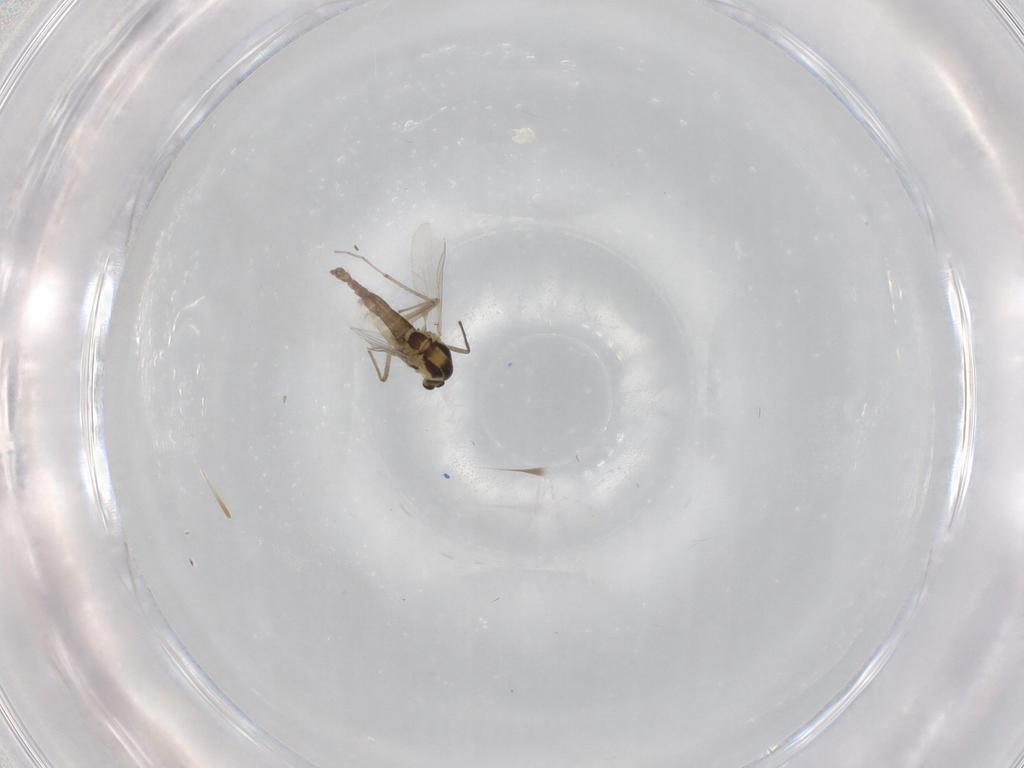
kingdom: Animalia
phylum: Arthropoda
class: Insecta
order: Diptera
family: Chironomidae
